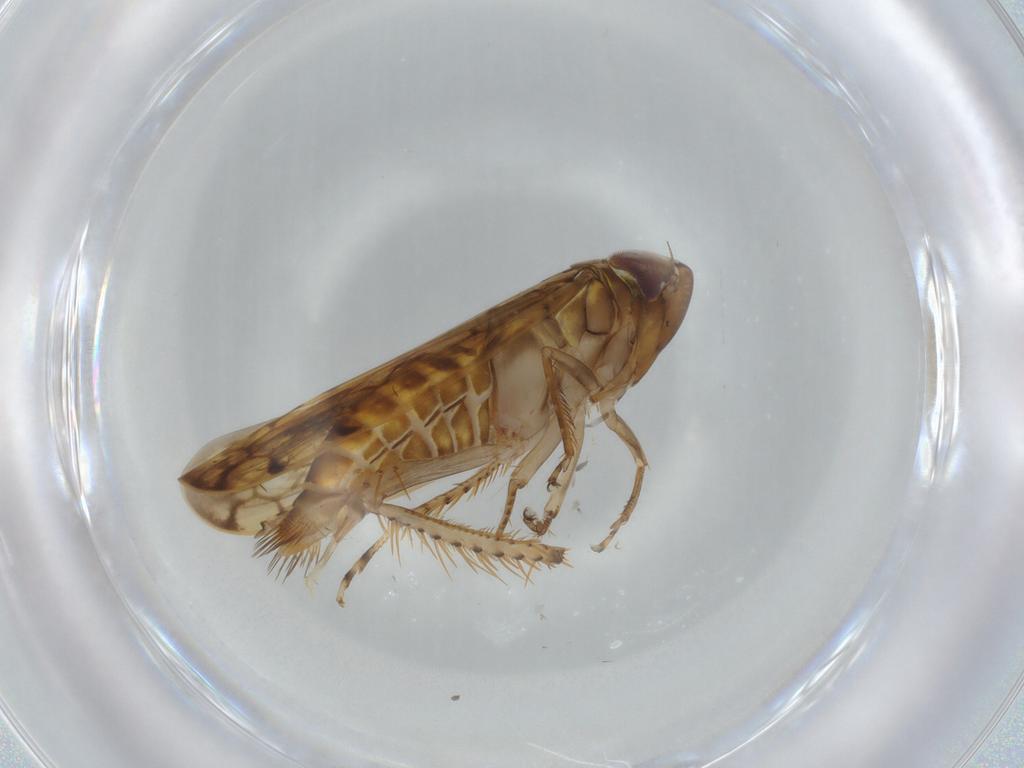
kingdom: Animalia
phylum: Arthropoda
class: Insecta
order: Hemiptera
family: Cicadellidae
